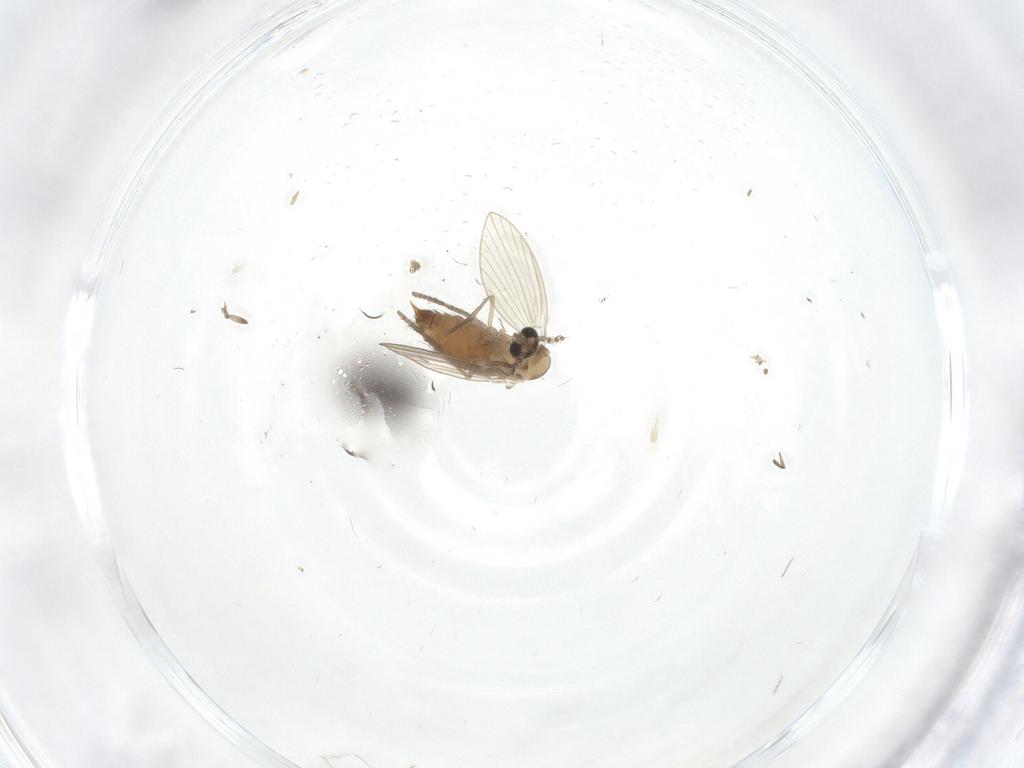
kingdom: Animalia
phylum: Arthropoda
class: Insecta
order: Diptera
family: Psychodidae
